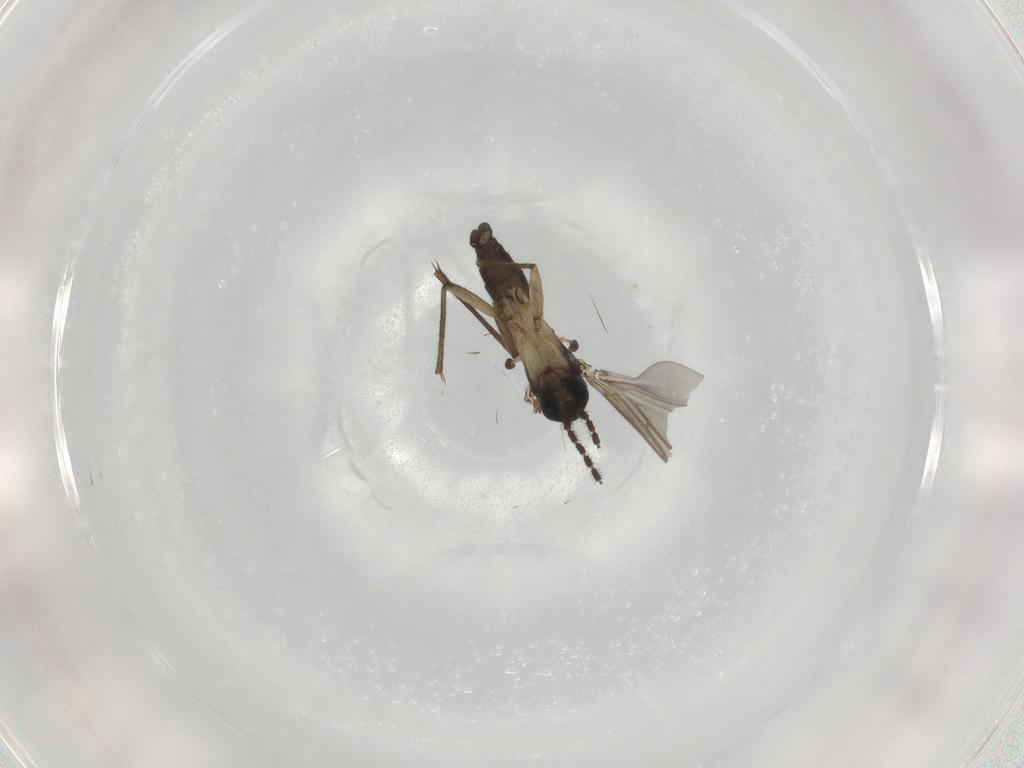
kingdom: Animalia
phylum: Arthropoda
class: Insecta
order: Diptera
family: Sciaridae
